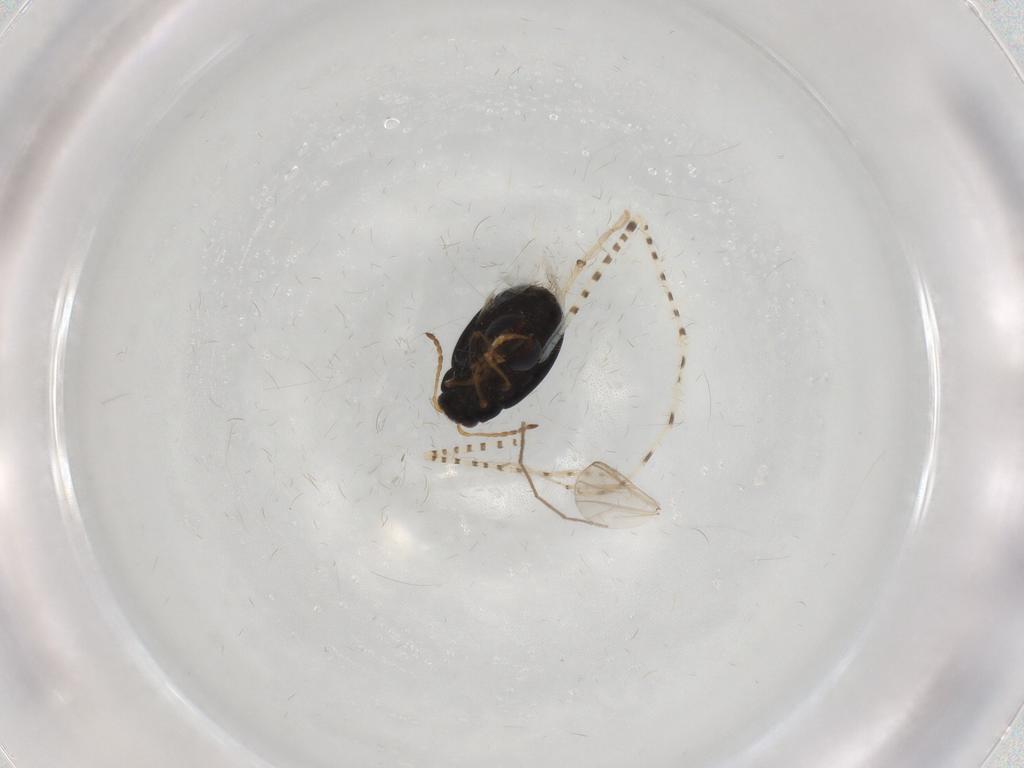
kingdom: Animalia
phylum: Arthropoda
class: Insecta
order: Coleoptera
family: Chrysomelidae
